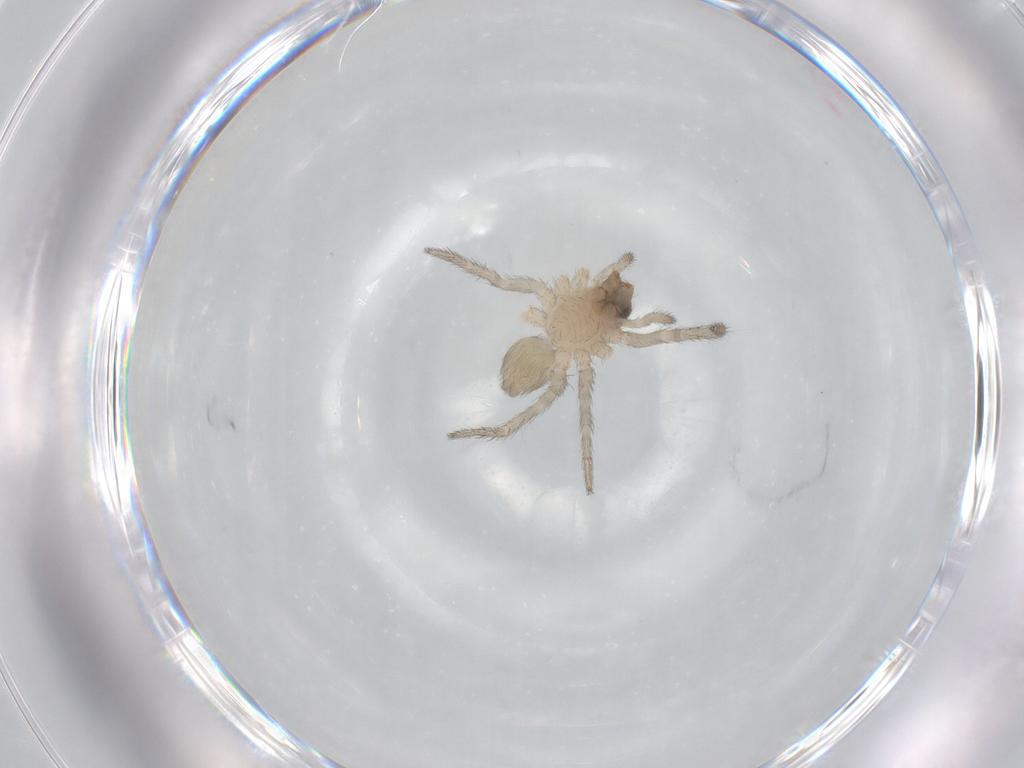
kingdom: Animalia
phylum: Arthropoda
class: Arachnida
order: Araneae
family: Lycosidae
